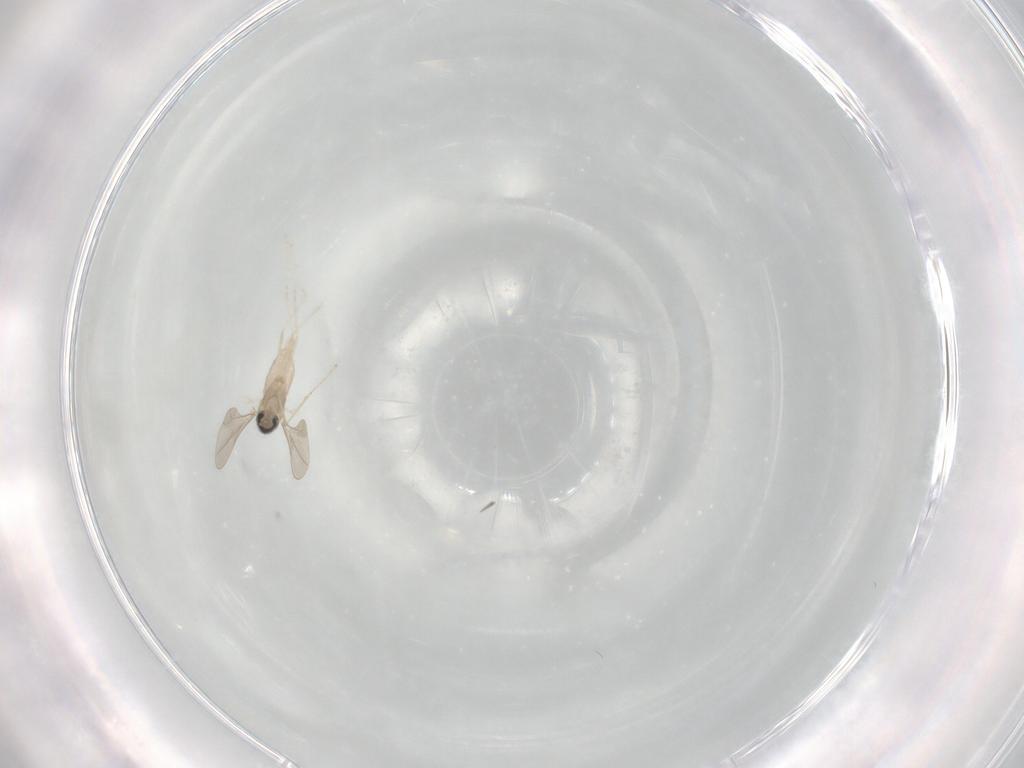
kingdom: Animalia
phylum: Arthropoda
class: Insecta
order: Diptera
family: Cecidomyiidae
